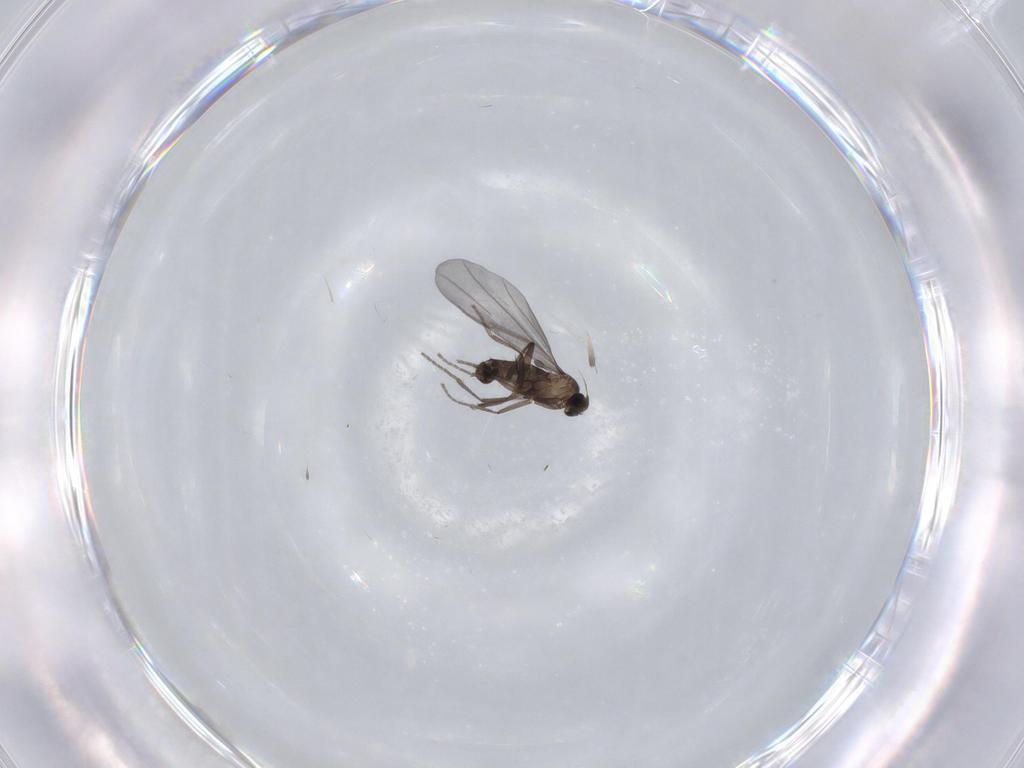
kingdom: Animalia
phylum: Arthropoda
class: Insecta
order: Diptera
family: Phoridae
